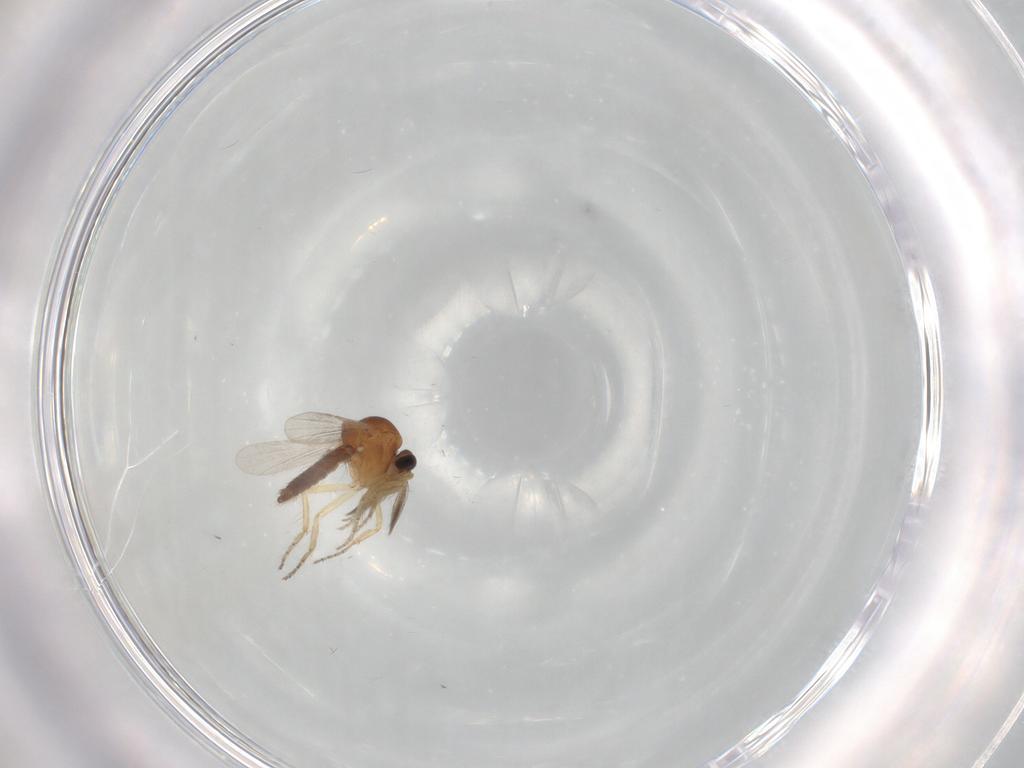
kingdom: Animalia
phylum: Arthropoda
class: Insecta
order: Diptera
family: Ceratopogonidae
